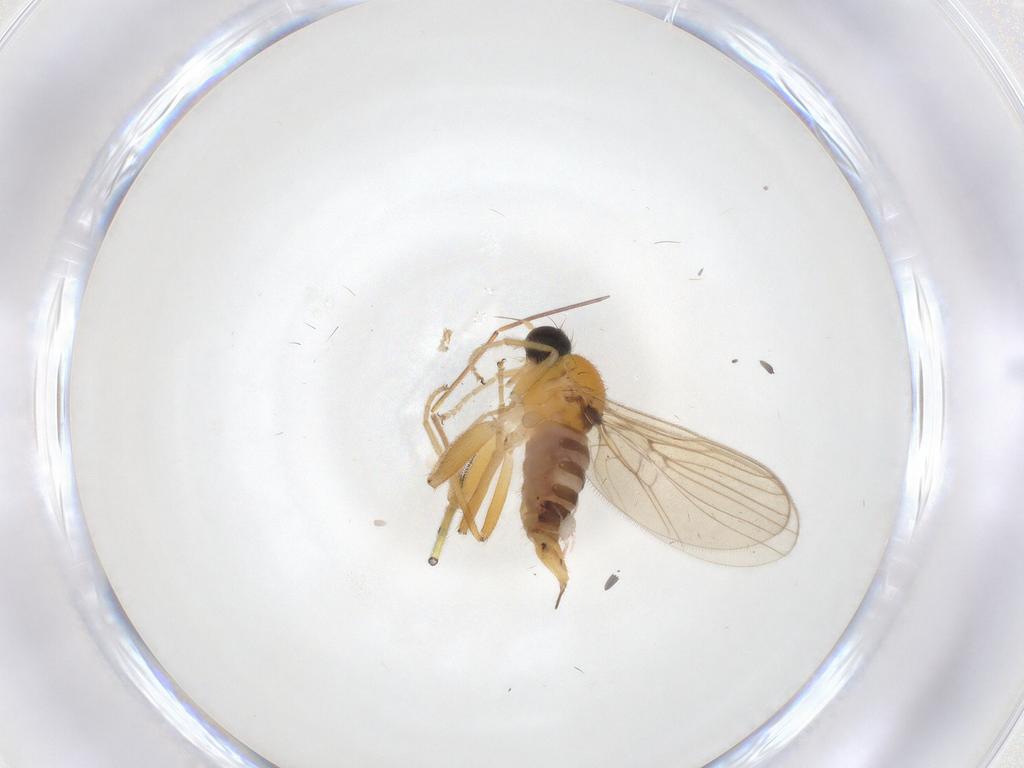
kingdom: Animalia
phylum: Arthropoda
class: Insecta
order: Diptera
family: Hybotidae
